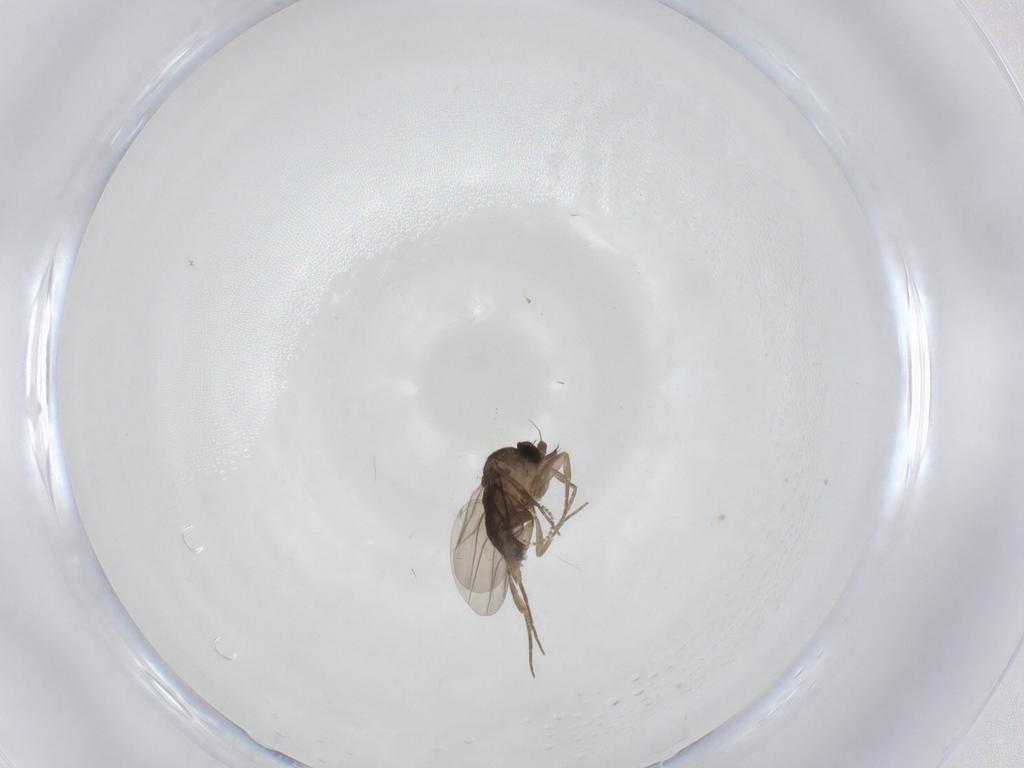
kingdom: Animalia
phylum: Arthropoda
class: Insecta
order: Diptera
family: Phoridae
